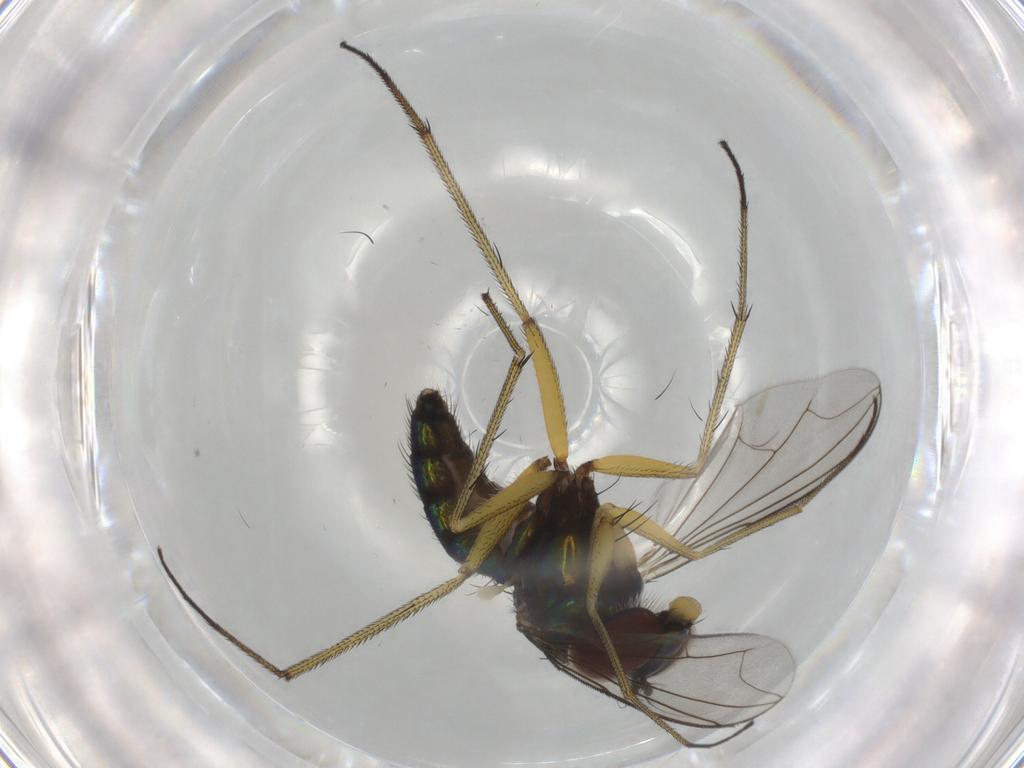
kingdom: Animalia
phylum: Arthropoda
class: Insecta
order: Diptera
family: Dolichopodidae
